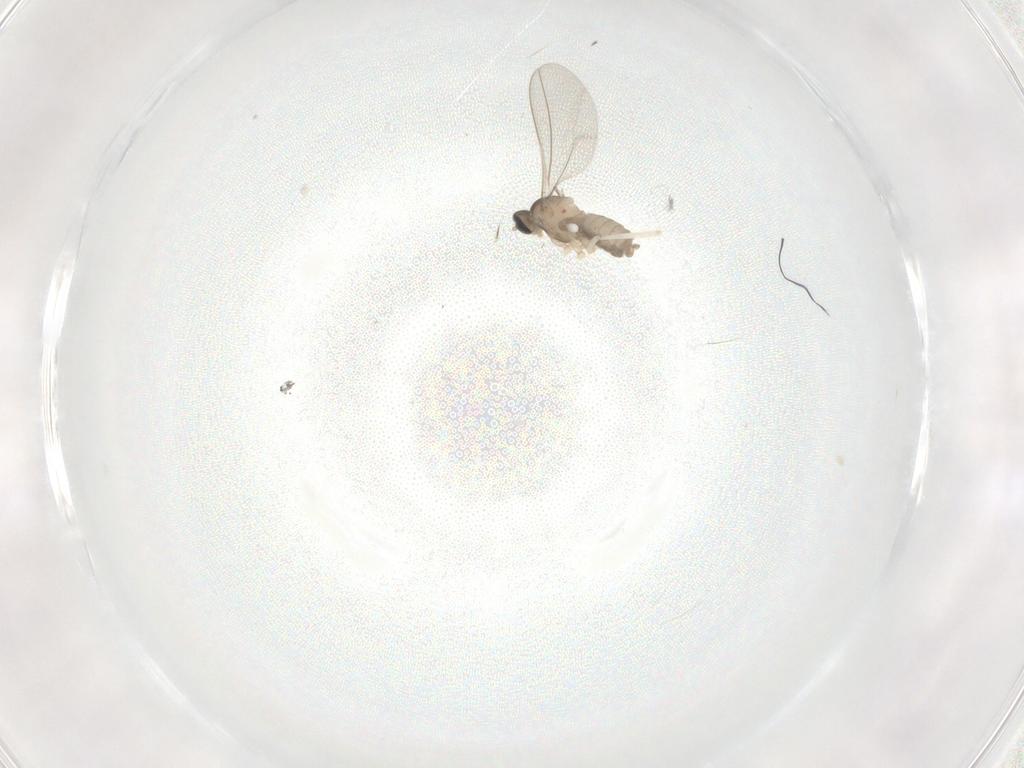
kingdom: Animalia
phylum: Arthropoda
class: Insecta
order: Diptera
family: Cecidomyiidae
